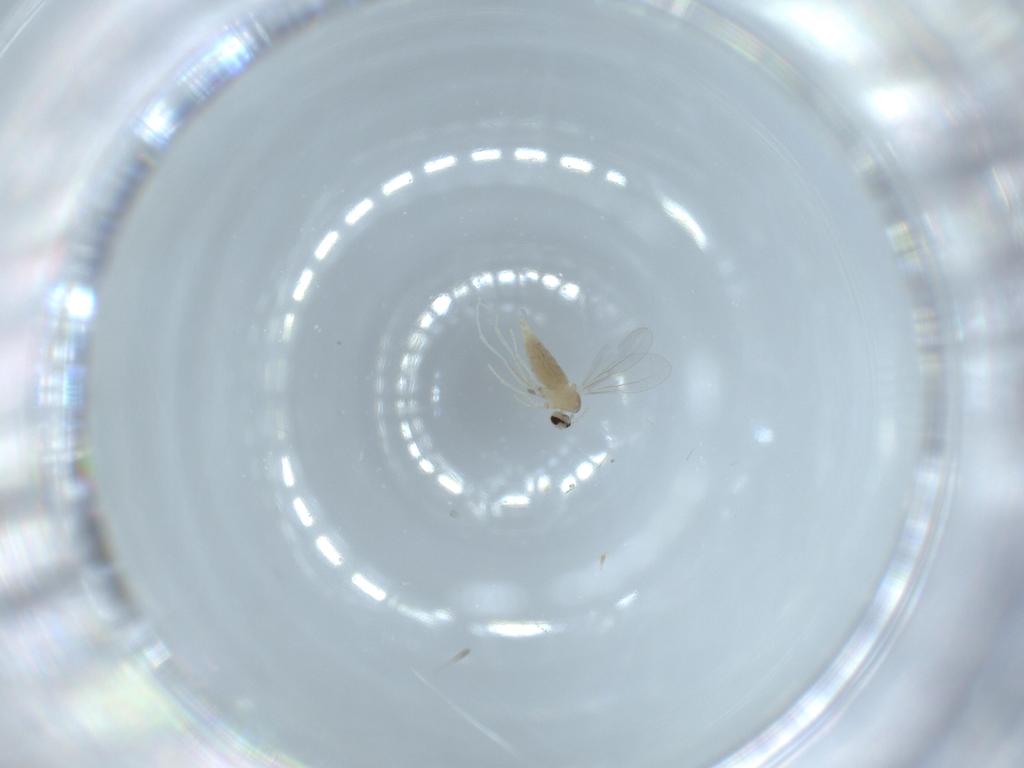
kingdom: Animalia
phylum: Arthropoda
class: Insecta
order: Diptera
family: Cecidomyiidae
